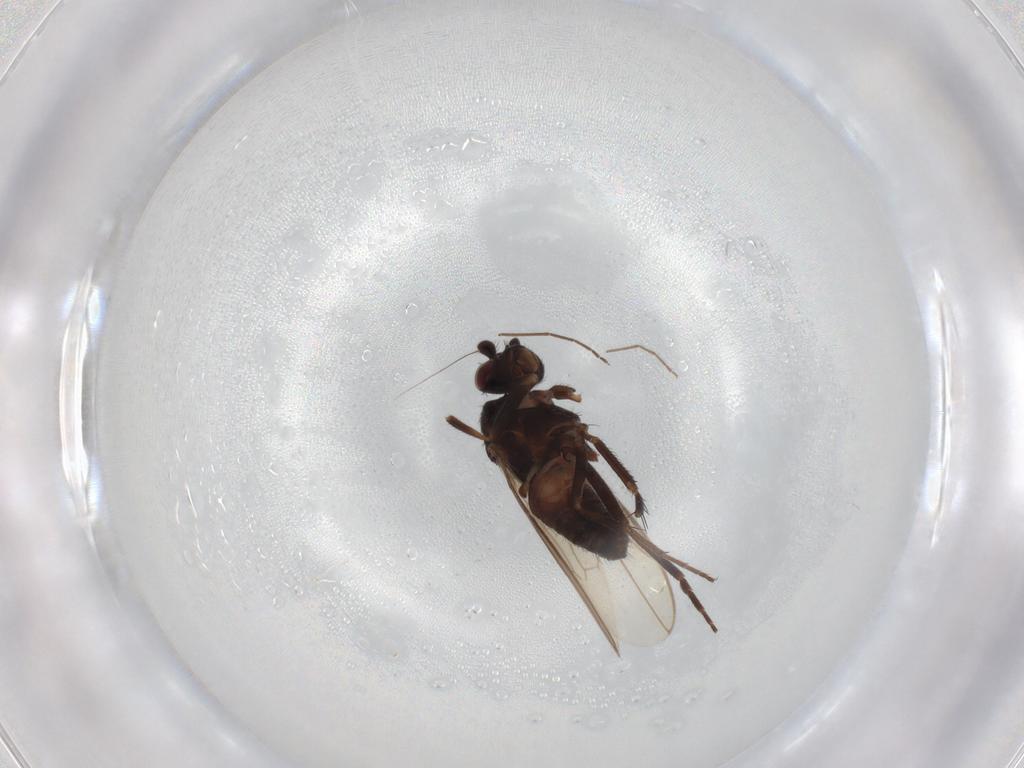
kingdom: Animalia
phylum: Arthropoda
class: Insecta
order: Diptera
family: Sphaeroceridae
